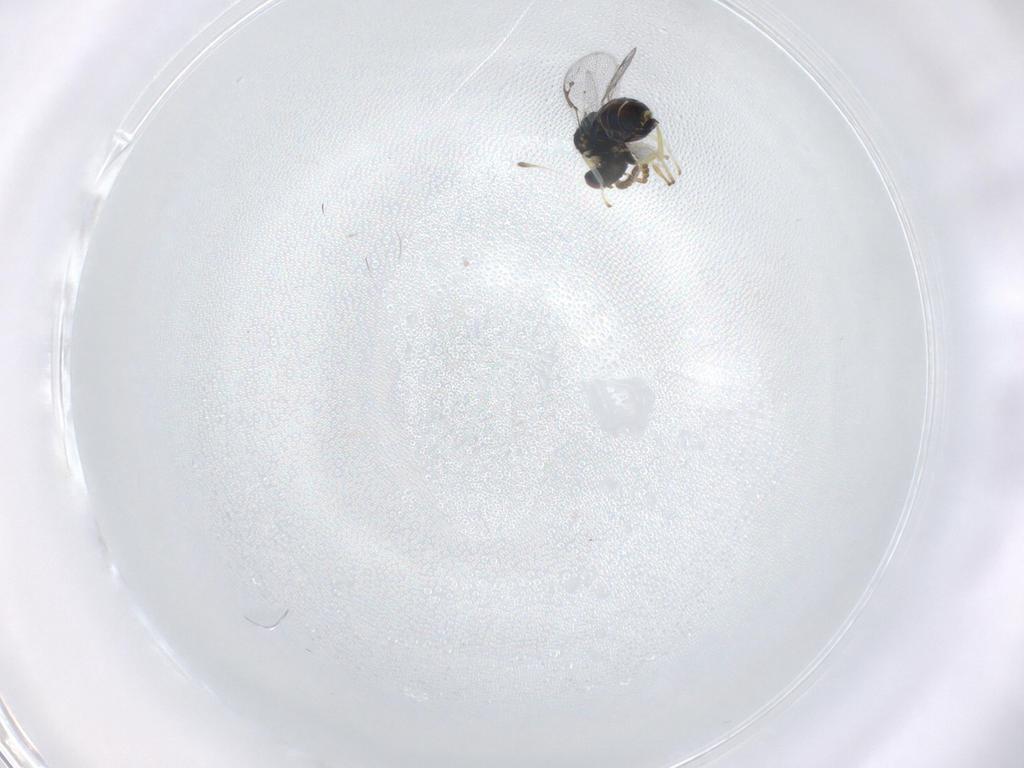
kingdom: Animalia
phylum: Arthropoda
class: Insecta
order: Hymenoptera
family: Pirenidae
